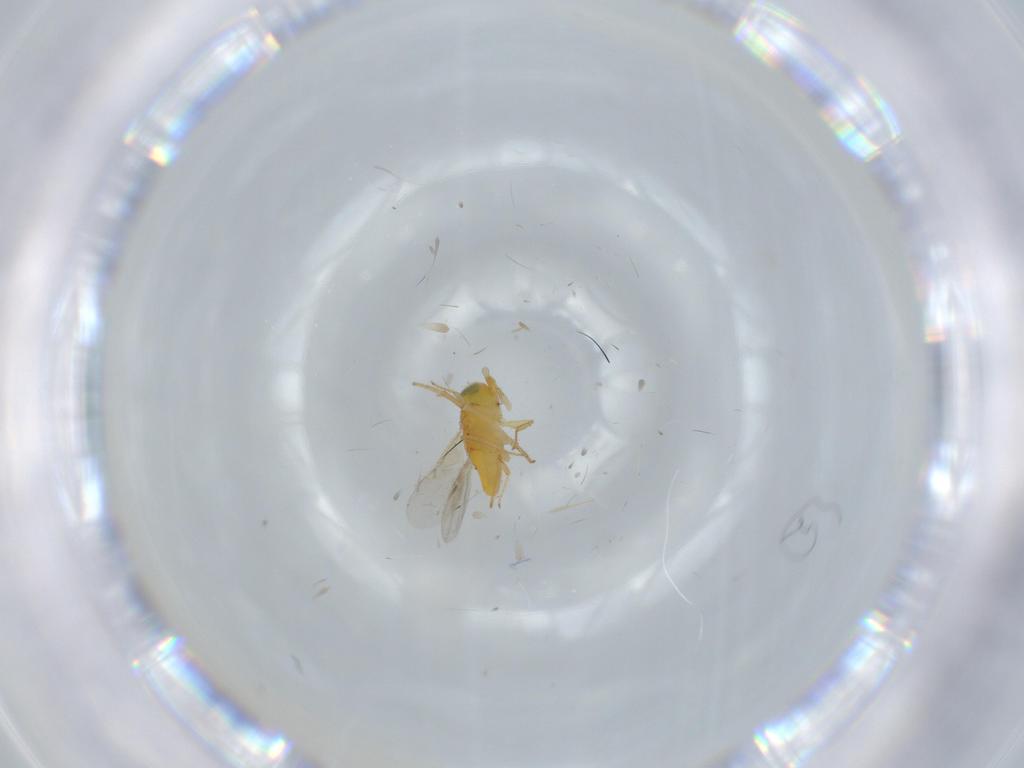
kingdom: Animalia
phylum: Arthropoda
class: Insecta
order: Hymenoptera
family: Encyrtidae
